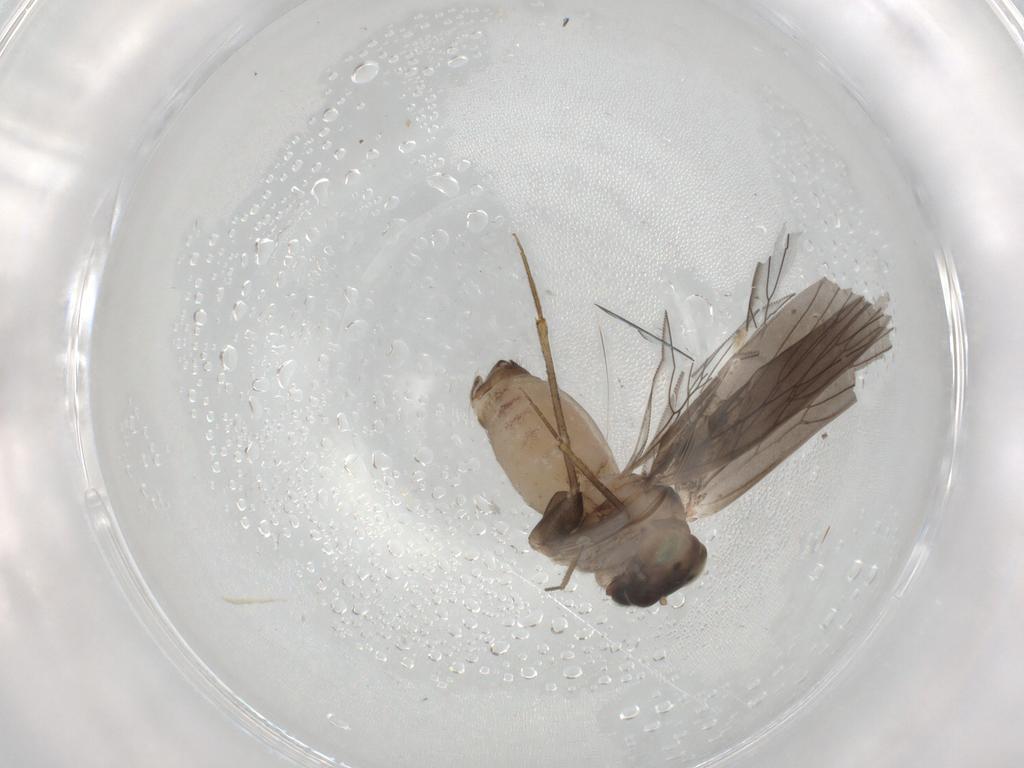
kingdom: Animalia
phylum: Arthropoda
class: Insecta
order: Psocodea
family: Lepidopsocidae
